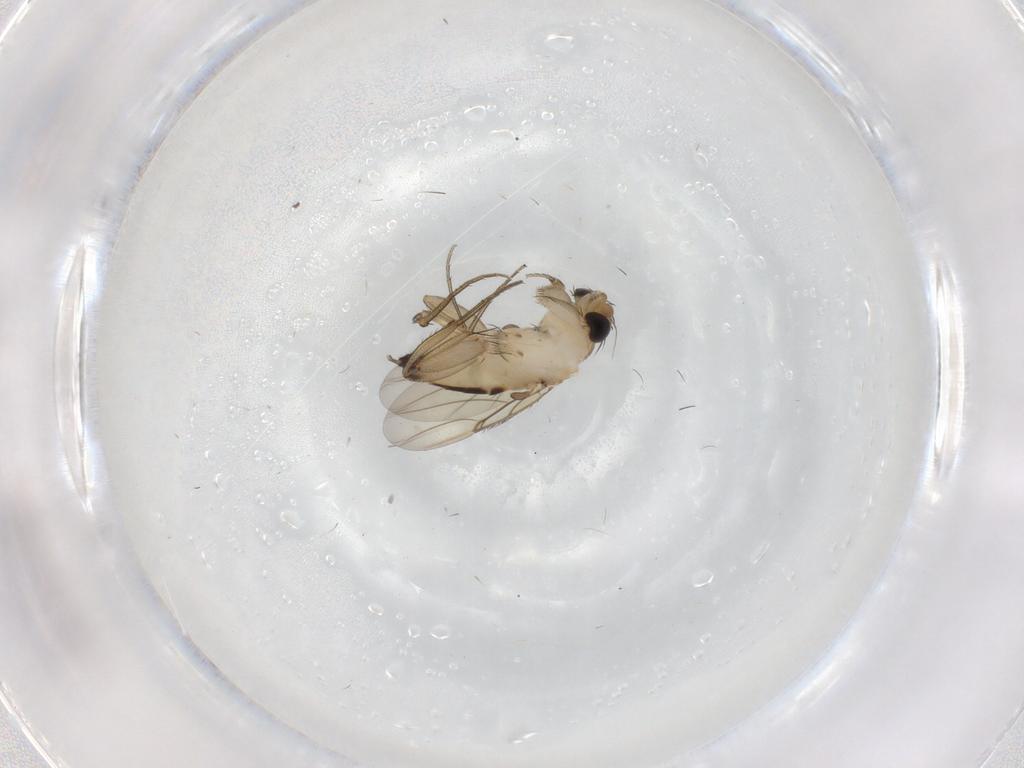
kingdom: Animalia
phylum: Arthropoda
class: Insecta
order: Diptera
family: Phoridae
